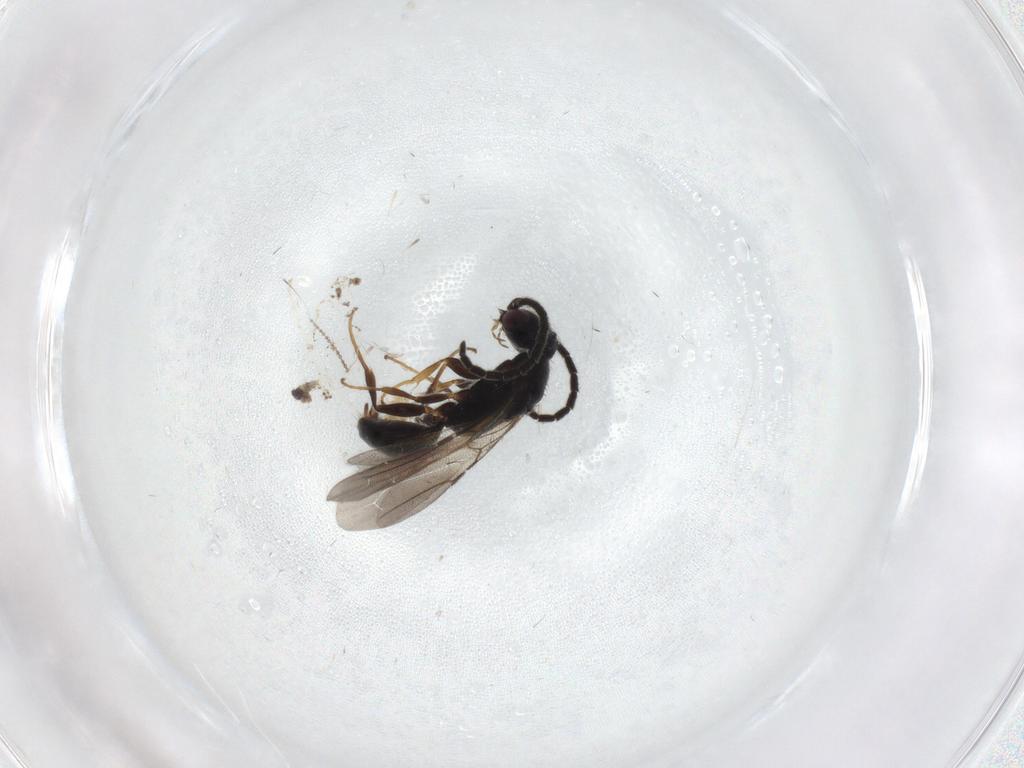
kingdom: Animalia
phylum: Arthropoda
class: Insecta
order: Hymenoptera
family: Bethylidae
